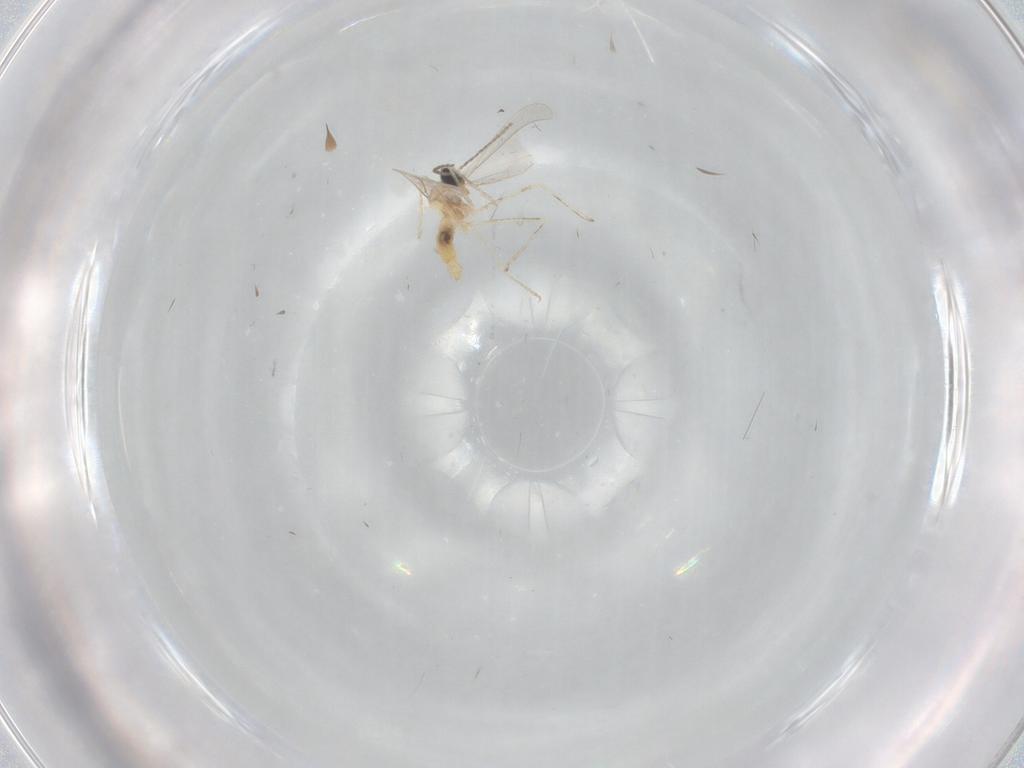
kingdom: Animalia
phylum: Arthropoda
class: Insecta
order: Diptera
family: Cecidomyiidae
